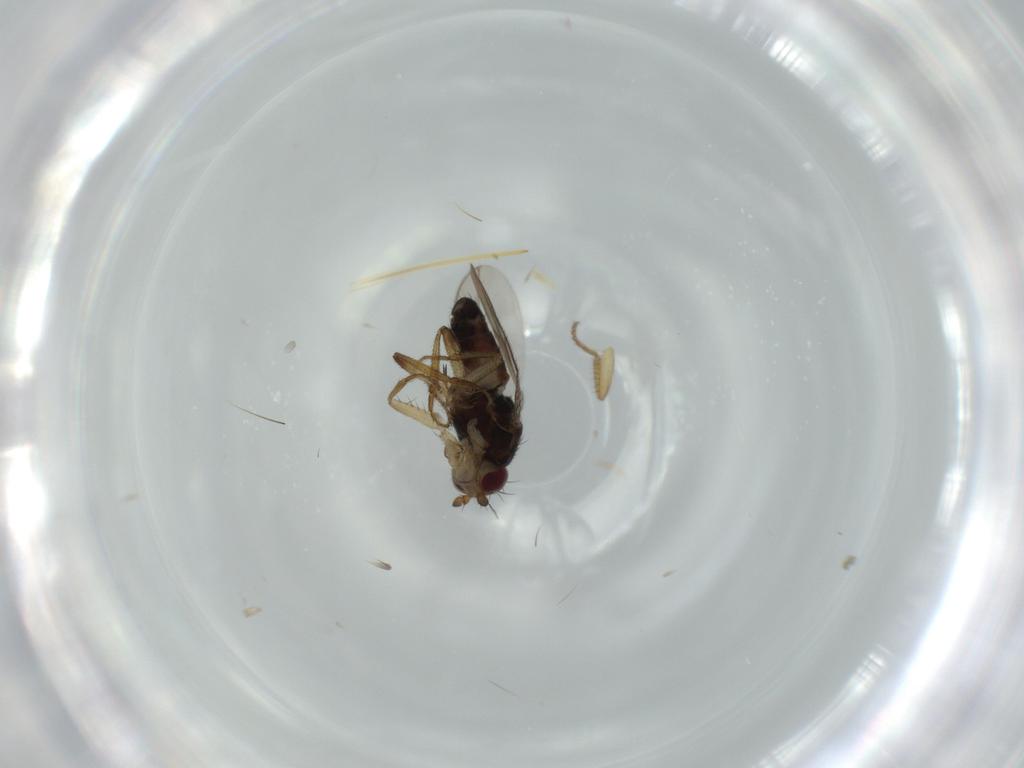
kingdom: Animalia
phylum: Arthropoda
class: Insecta
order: Diptera
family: Sphaeroceridae
